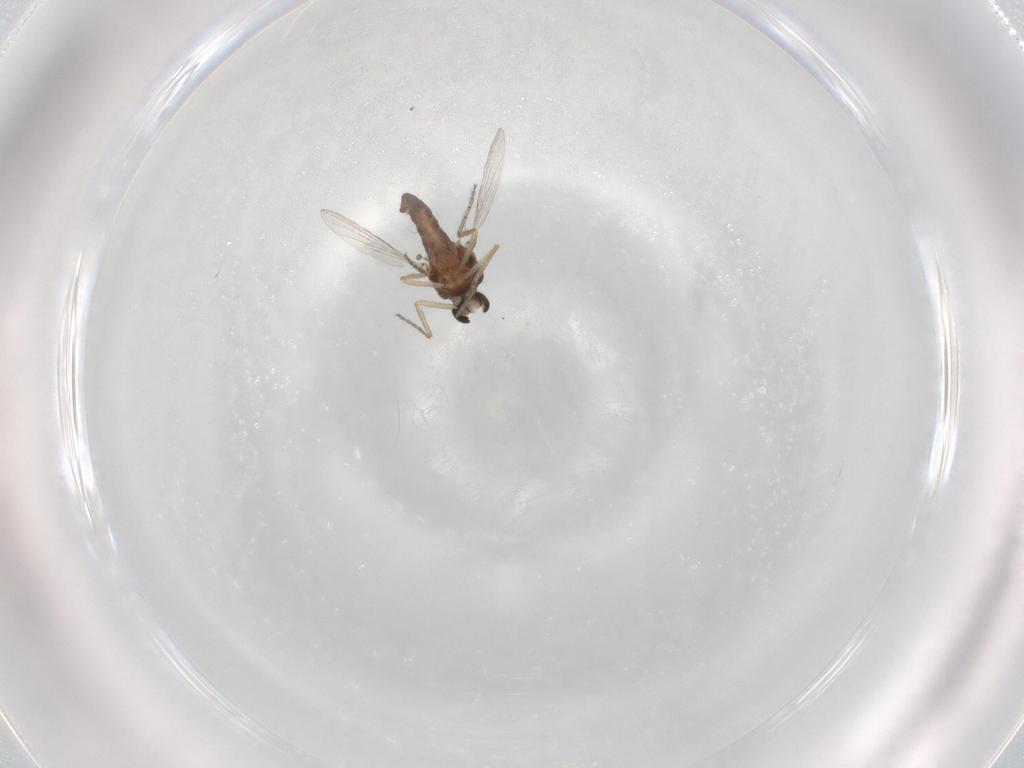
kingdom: Animalia
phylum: Arthropoda
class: Insecta
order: Diptera
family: Ceratopogonidae
